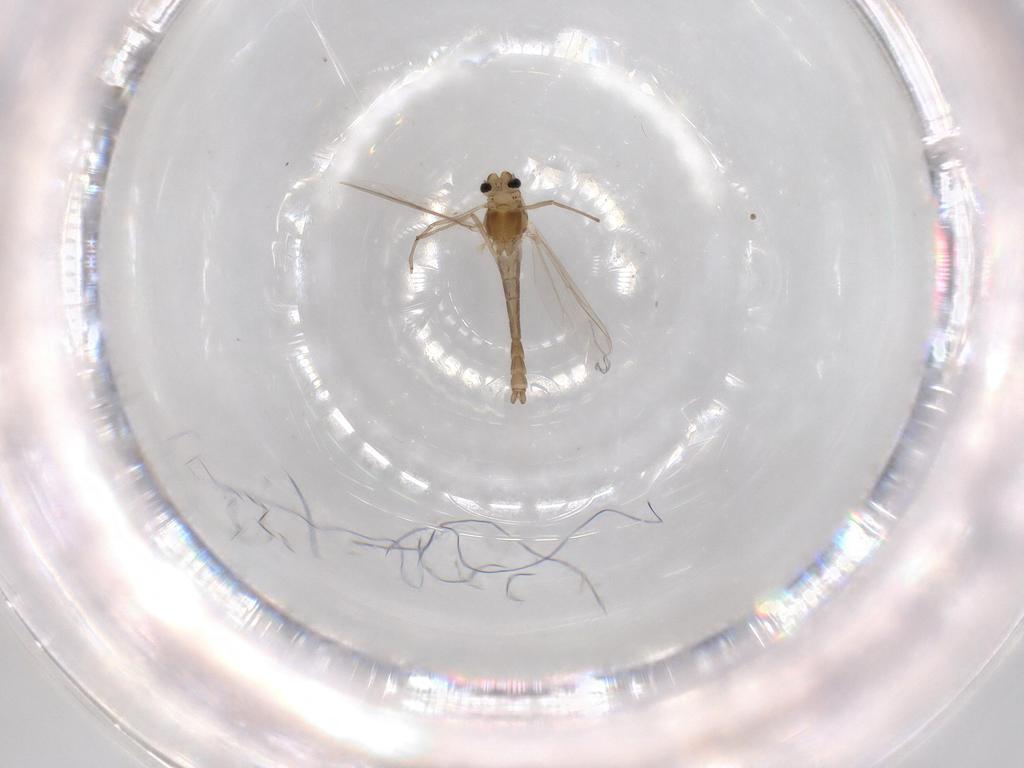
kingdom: Animalia
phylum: Arthropoda
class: Insecta
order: Diptera
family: Chironomidae
